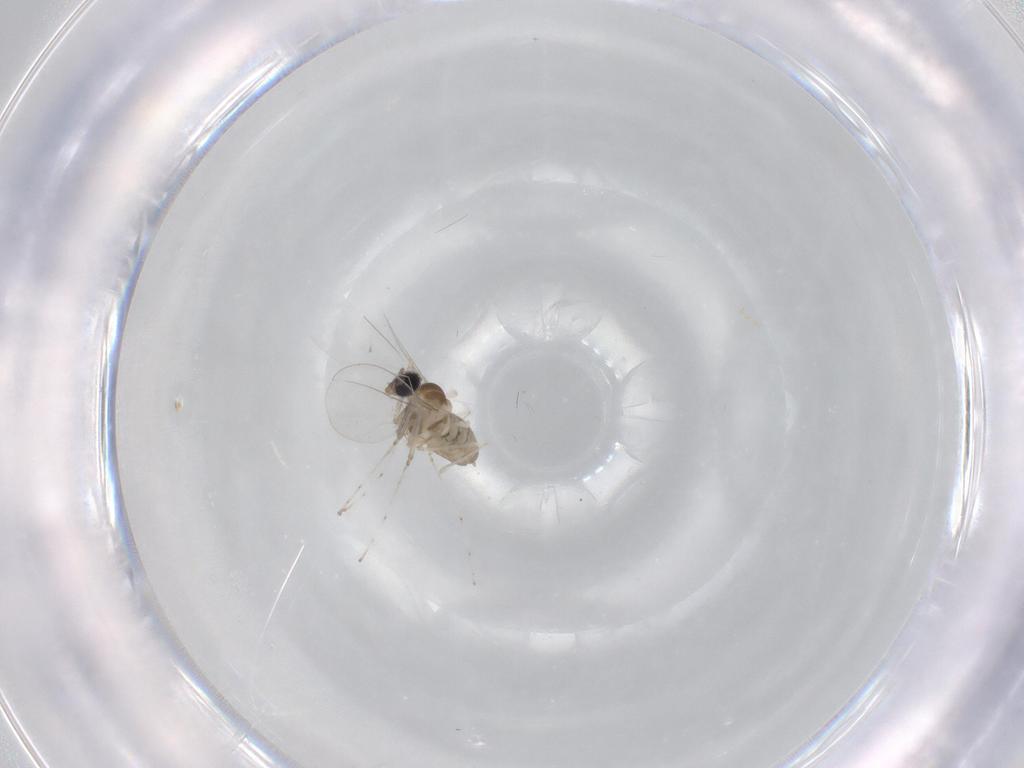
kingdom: Animalia
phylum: Arthropoda
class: Insecta
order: Diptera
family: Cecidomyiidae
